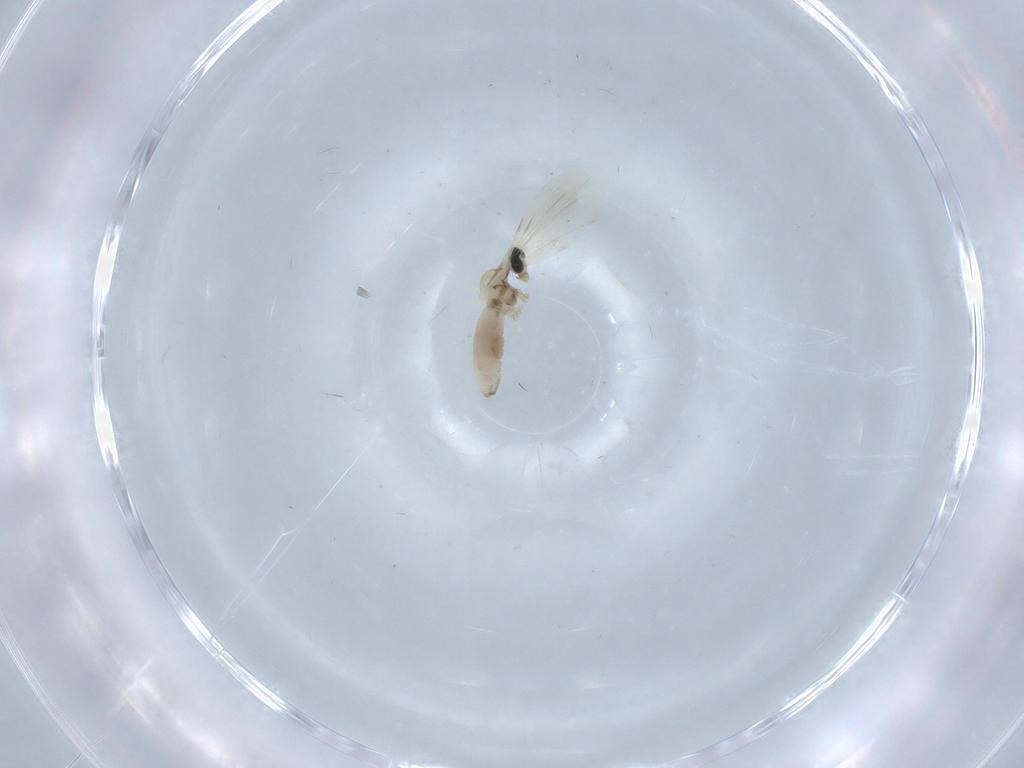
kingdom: Animalia
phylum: Arthropoda
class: Insecta
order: Diptera
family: Cecidomyiidae
